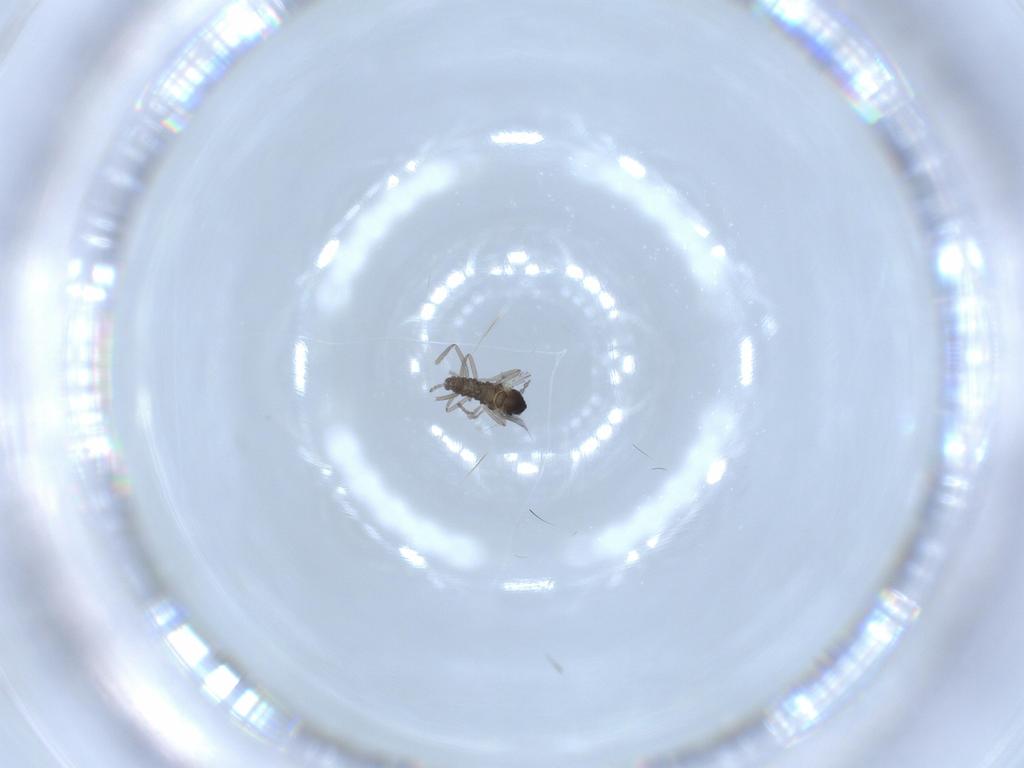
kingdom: Animalia
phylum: Arthropoda
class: Insecta
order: Diptera
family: Cecidomyiidae
